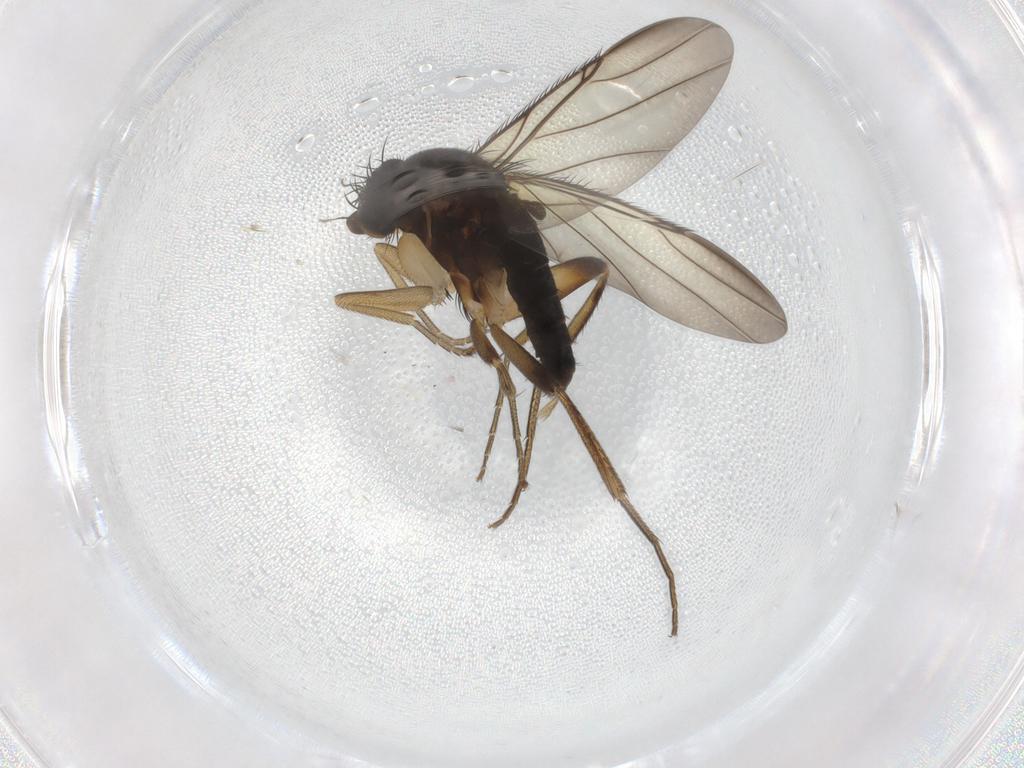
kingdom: Animalia
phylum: Arthropoda
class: Insecta
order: Diptera
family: Phoridae
